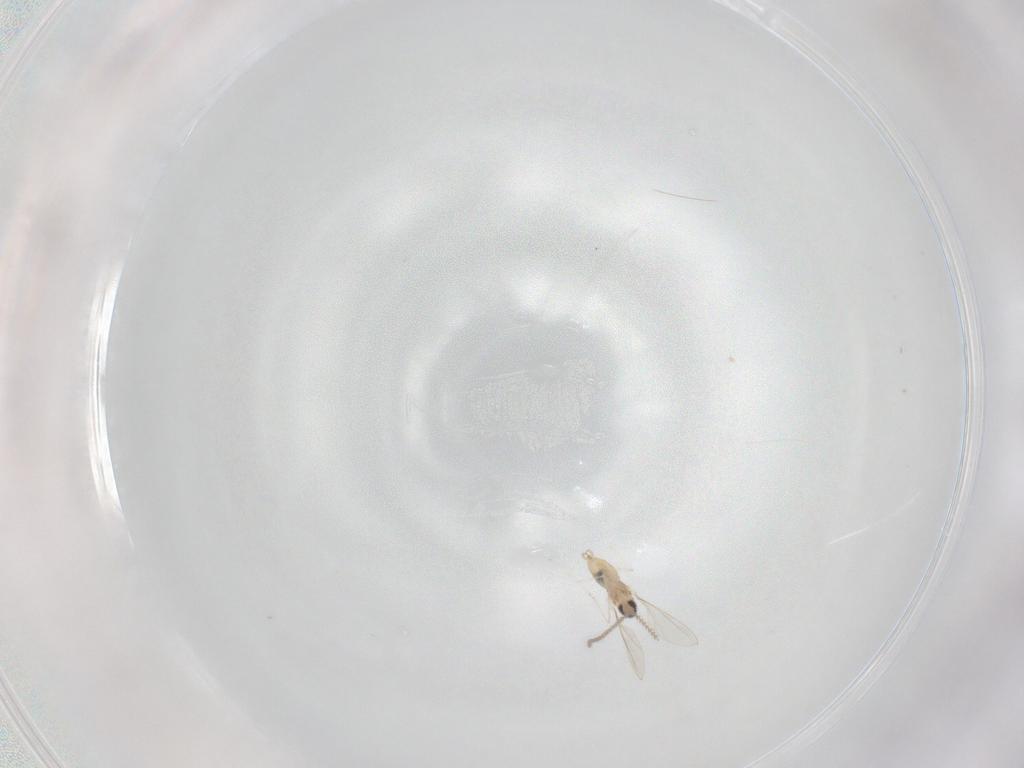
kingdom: Animalia
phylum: Arthropoda
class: Insecta
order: Diptera
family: Cecidomyiidae
